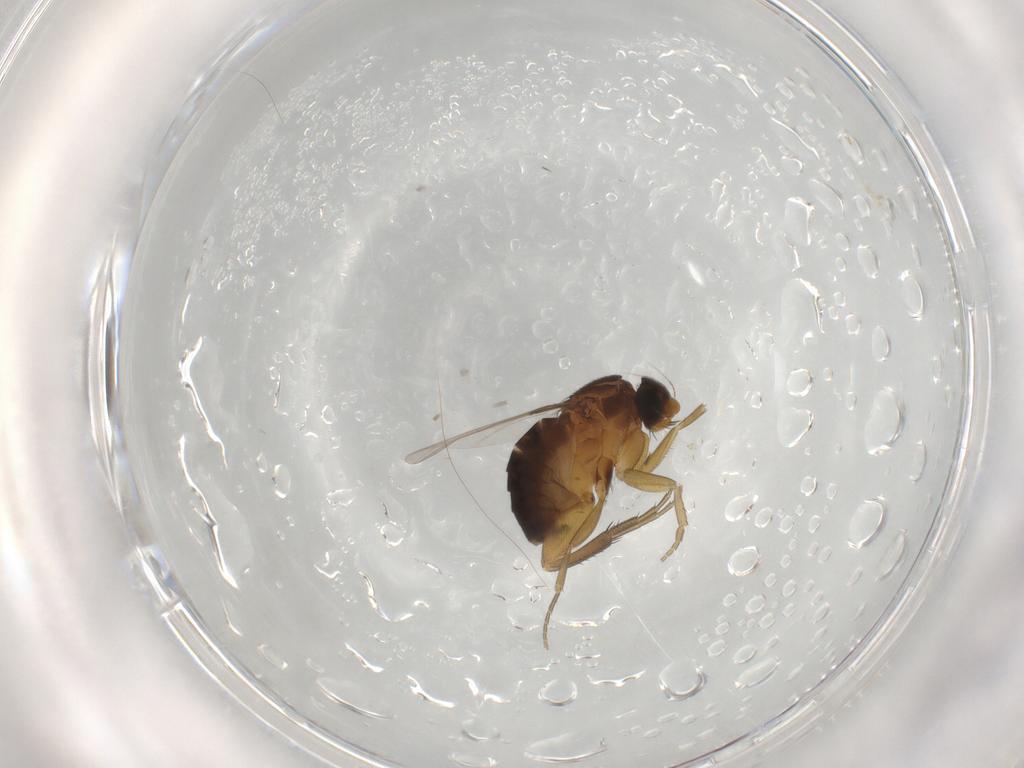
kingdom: Animalia
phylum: Arthropoda
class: Insecta
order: Diptera
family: Phoridae
